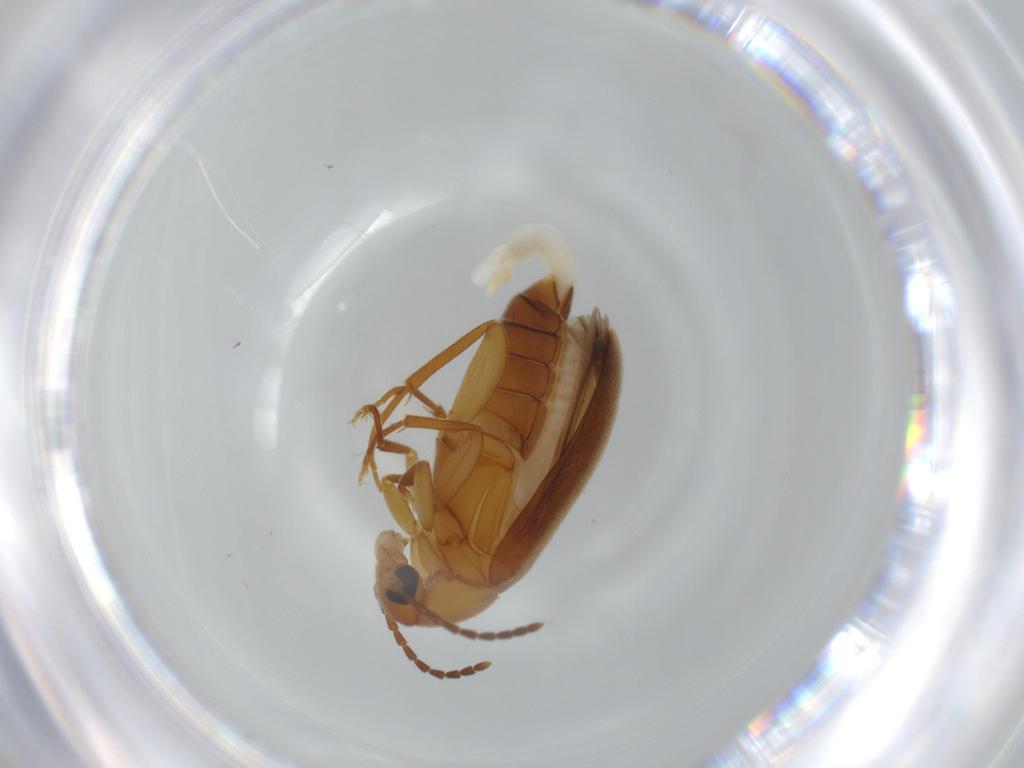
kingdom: Animalia
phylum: Arthropoda
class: Insecta
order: Coleoptera
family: Scraptiidae
